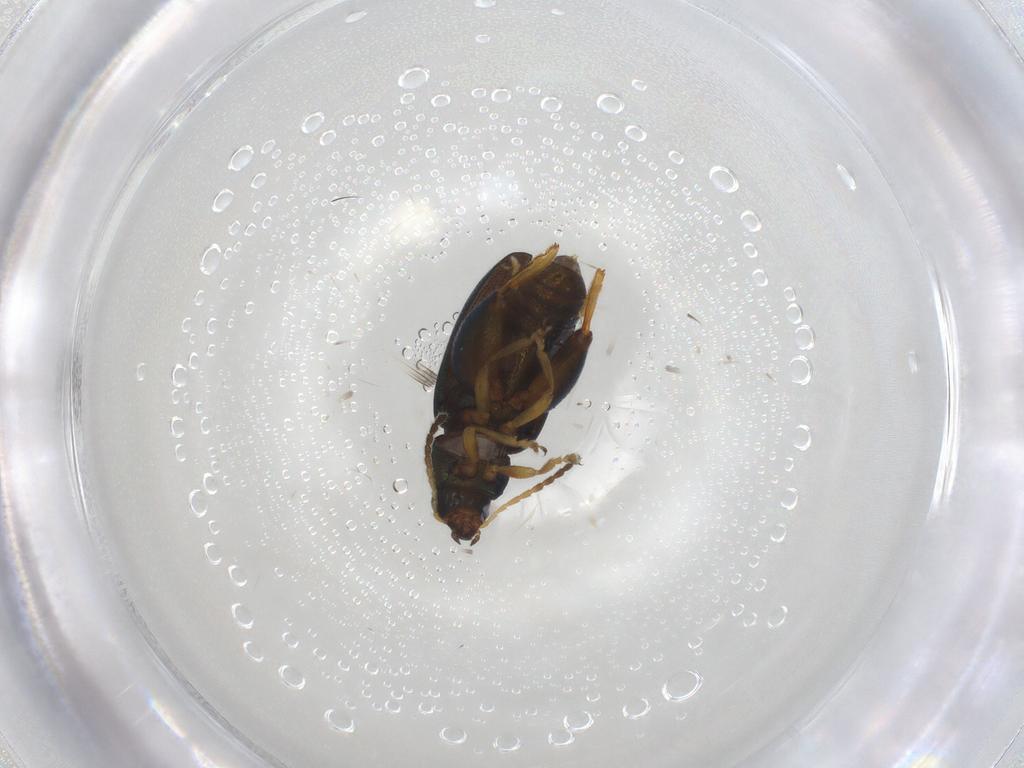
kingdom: Animalia
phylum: Arthropoda
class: Insecta
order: Coleoptera
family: Chrysomelidae
